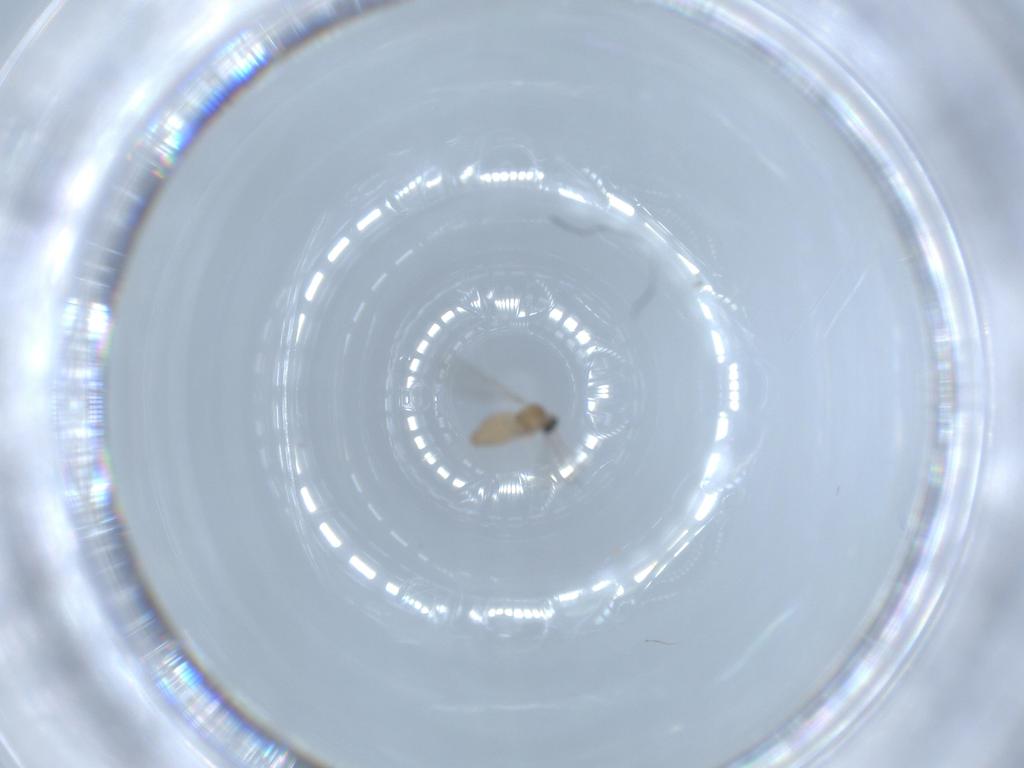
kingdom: Animalia
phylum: Arthropoda
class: Insecta
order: Diptera
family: Cecidomyiidae
